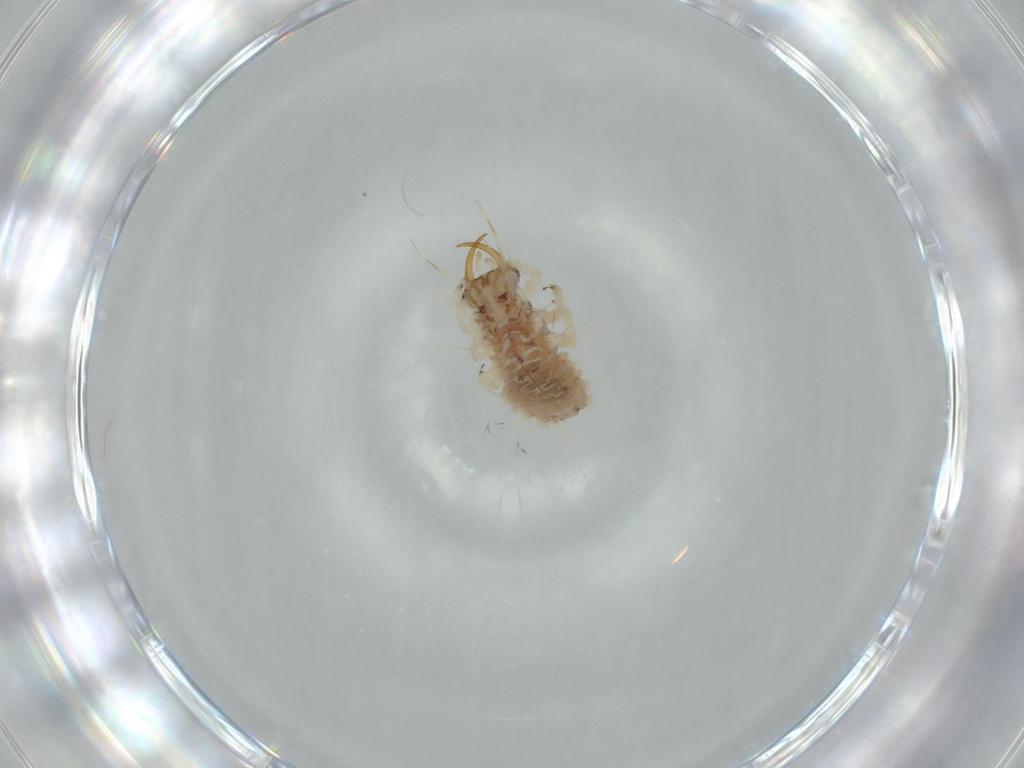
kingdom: Animalia
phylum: Arthropoda
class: Insecta
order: Neuroptera
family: Chrysopidae
